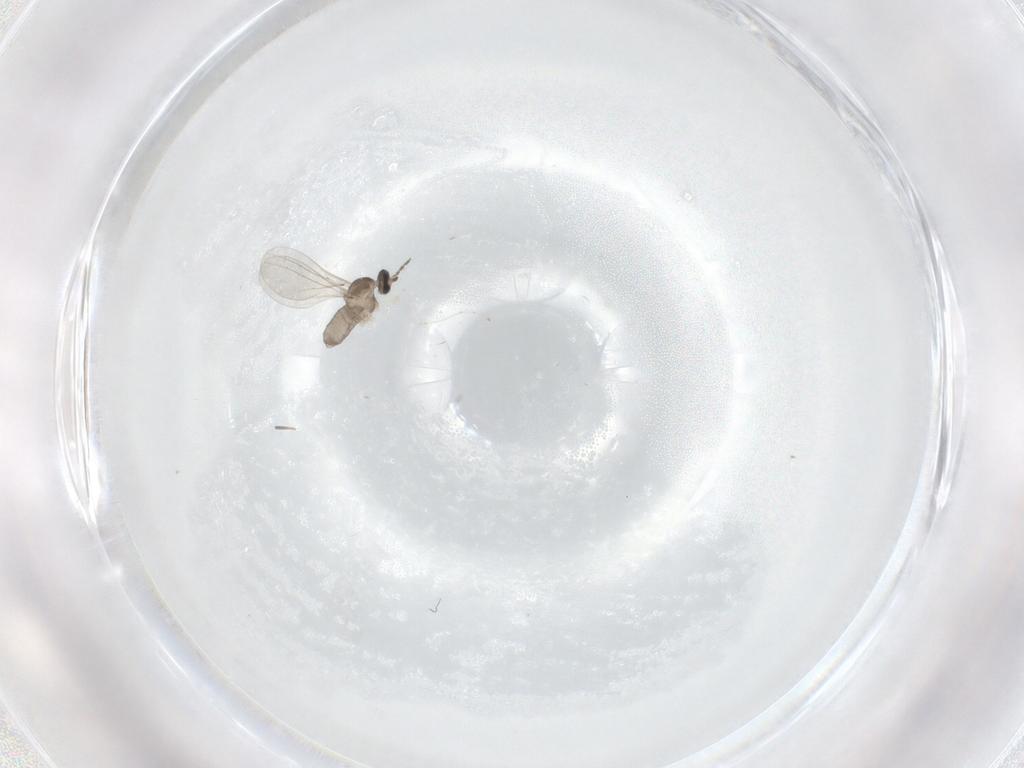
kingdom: Animalia
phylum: Arthropoda
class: Insecta
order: Diptera
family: Cecidomyiidae
